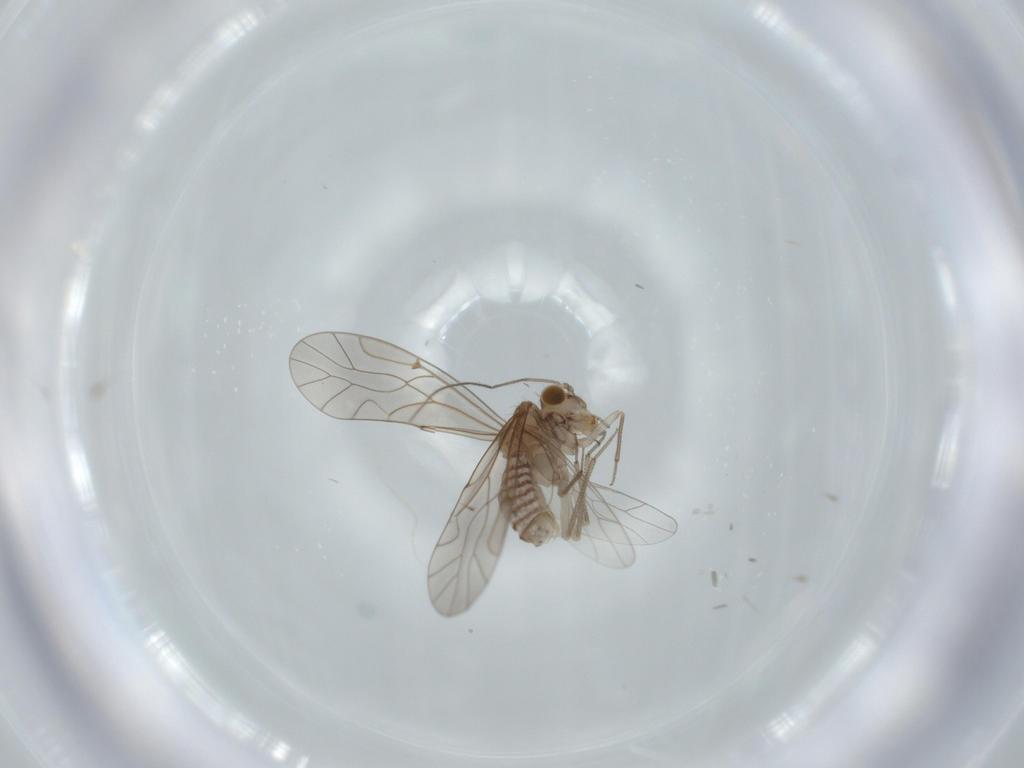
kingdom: Animalia
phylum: Arthropoda
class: Insecta
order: Psocodea
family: Lachesillidae
